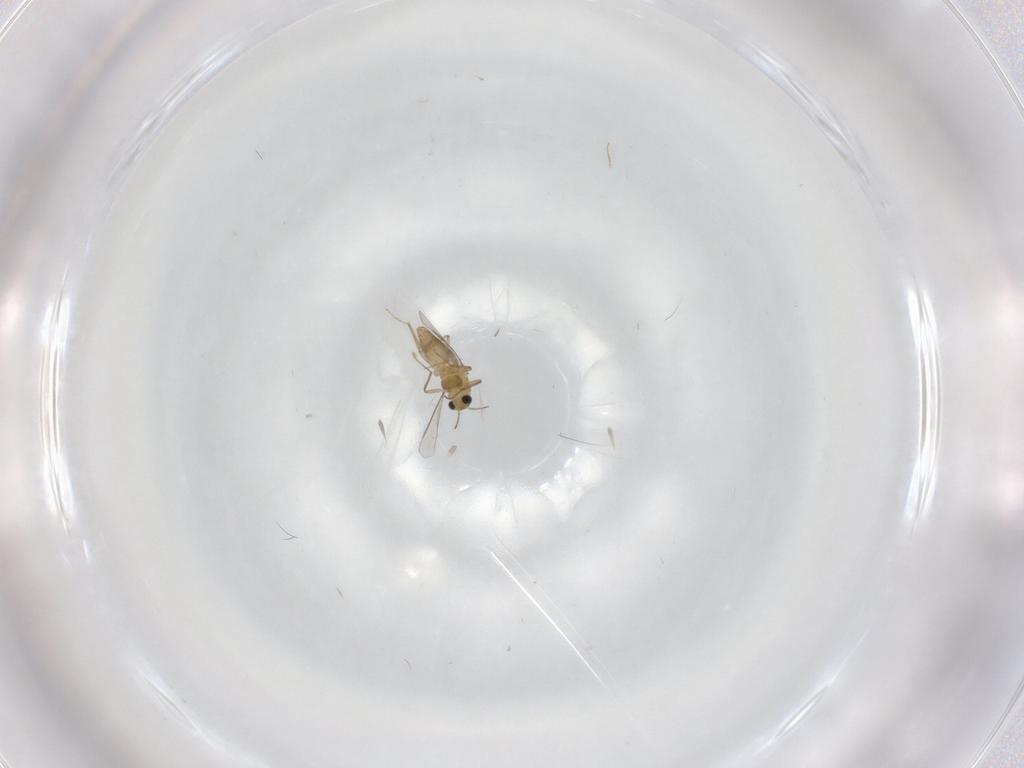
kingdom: Animalia
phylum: Arthropoda
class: Insecta
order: Diptera
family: Chironomidae
